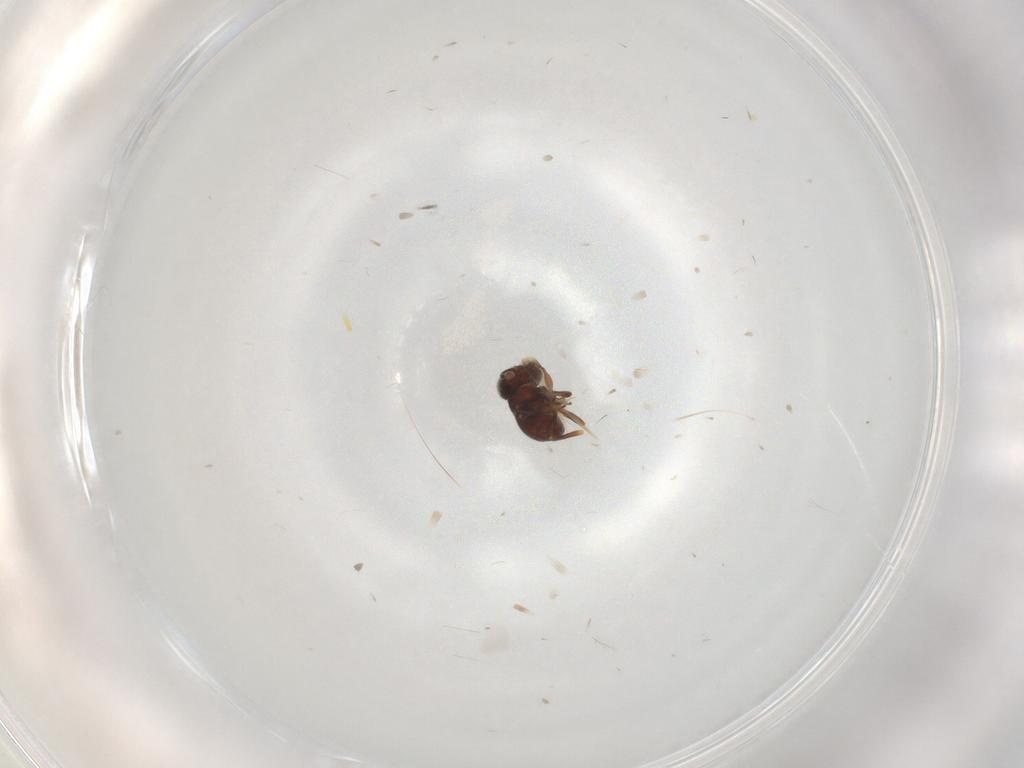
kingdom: Animalia
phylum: Arthropoda
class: Insecta
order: Hymenoptera
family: Scelionidae
